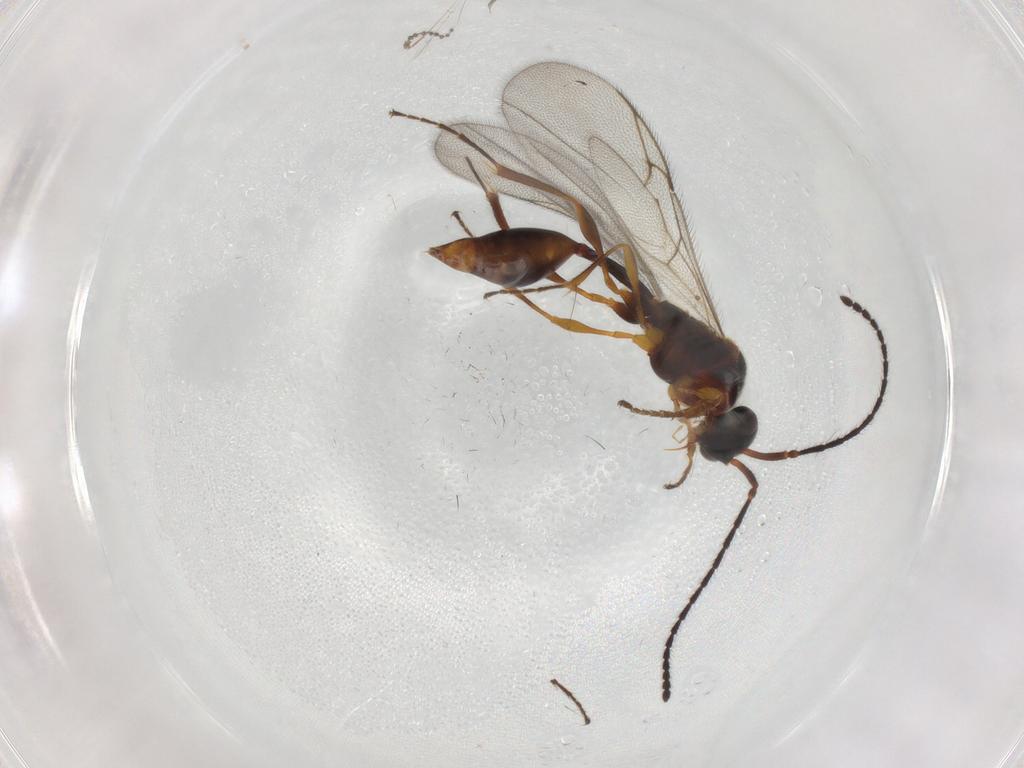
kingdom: Animalia
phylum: Arthropoda
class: Insecta
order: Hymenoptera
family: Diapriidae
